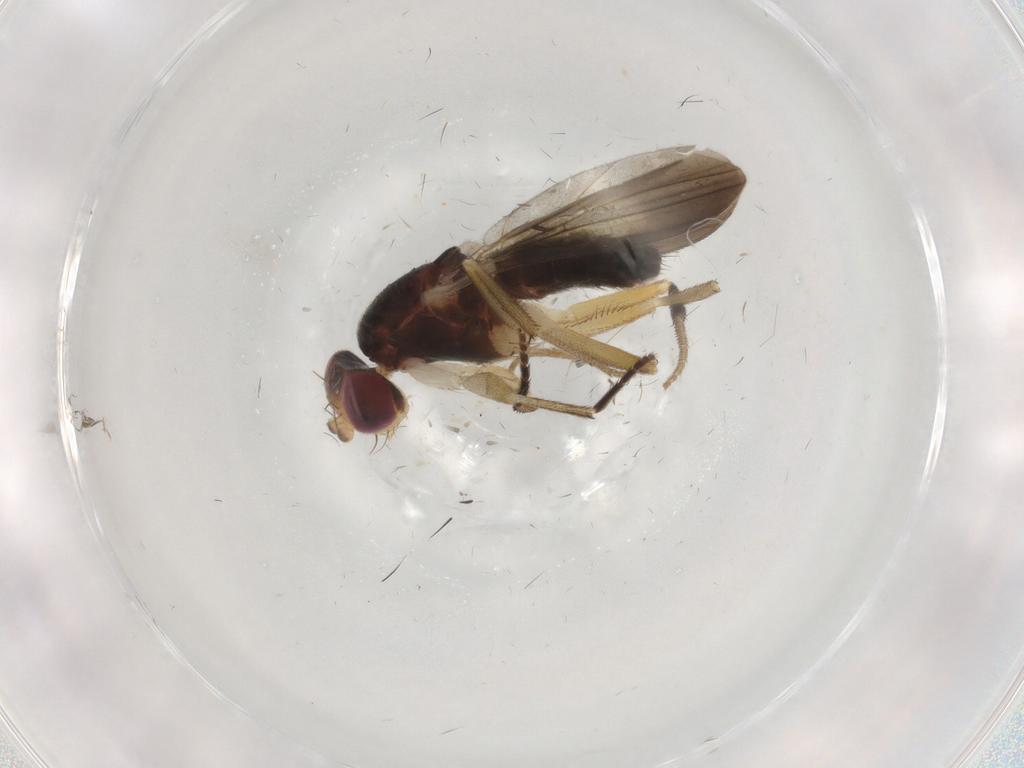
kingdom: Animalia
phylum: Arthropoda
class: Insecta
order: Diptera
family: Clusiidae
